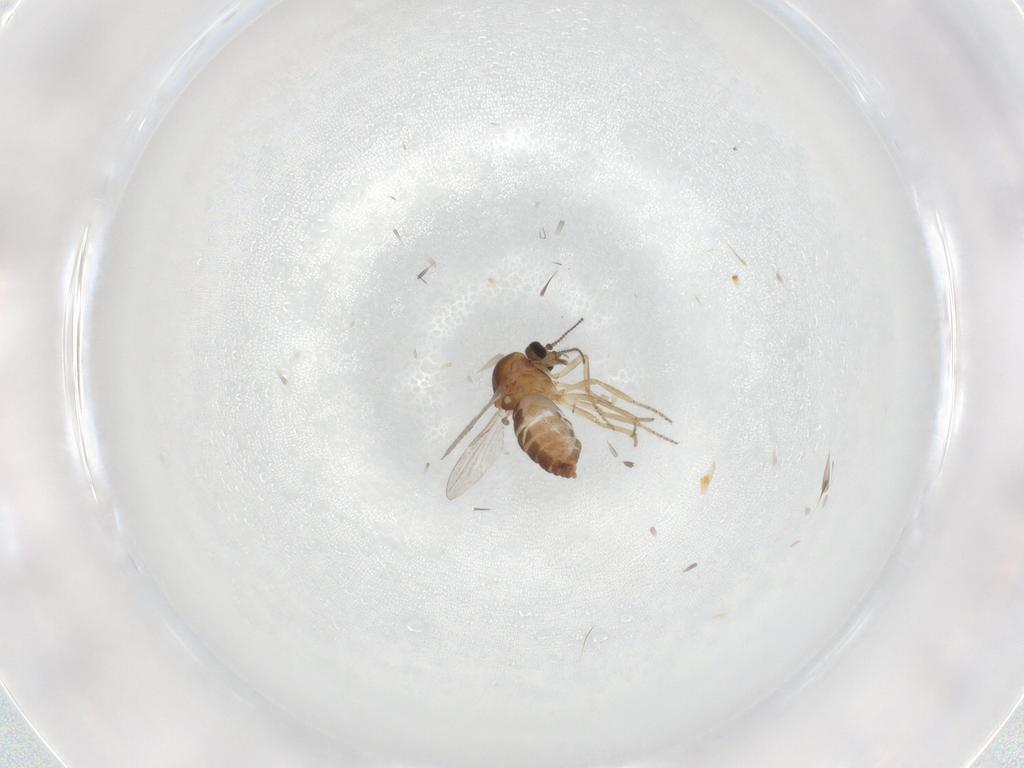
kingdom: Animalia
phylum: Arthropoda
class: Insecta
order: Diptera
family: Ceratopogonidae
